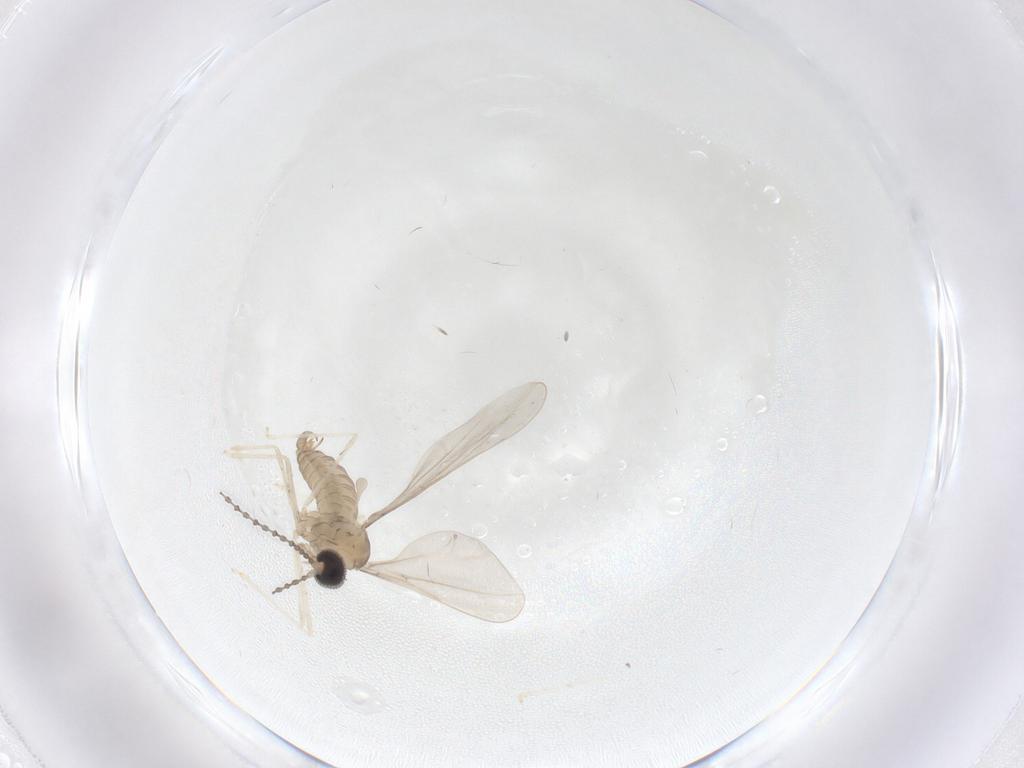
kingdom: Animalia
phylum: Arthropoda
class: Insecta
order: Diptera
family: Cecidomyiidae
